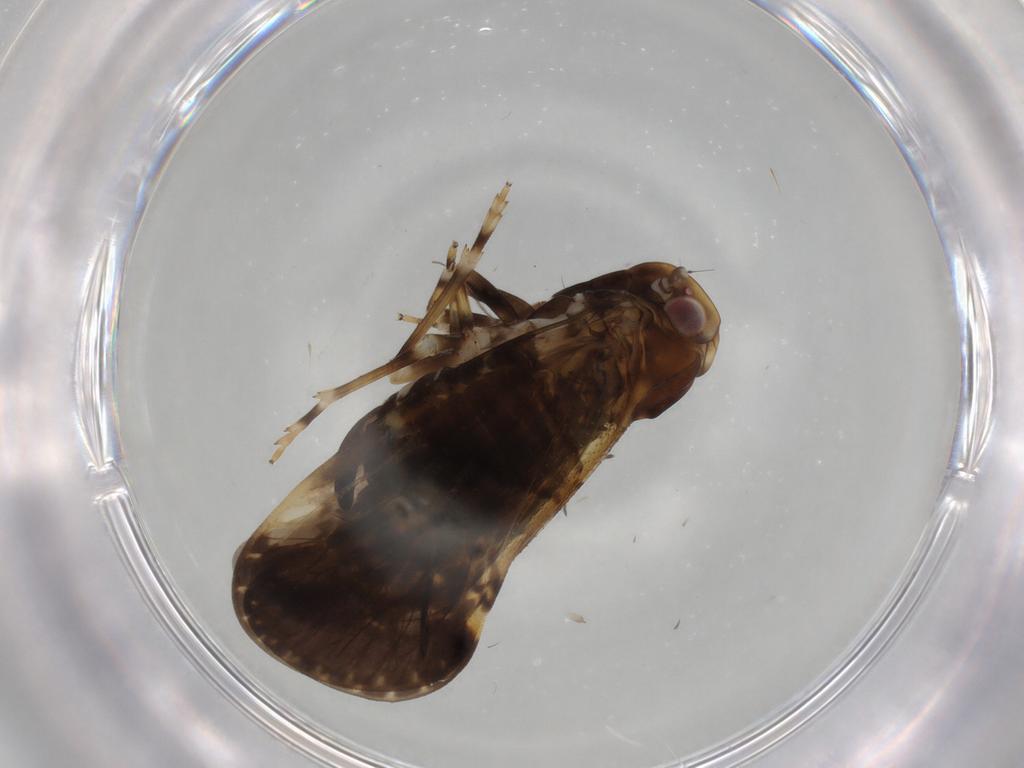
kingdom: Animalia
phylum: Arthropoda
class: Insecta
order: Hemiptera
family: Cixiidae
